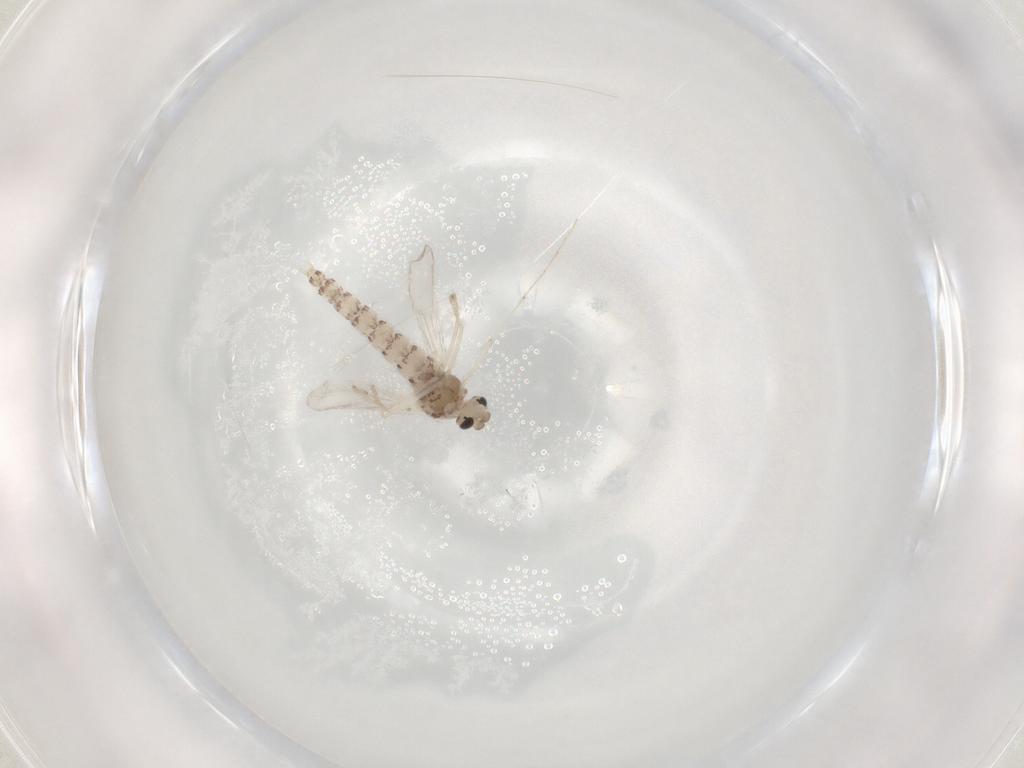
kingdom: Animalia
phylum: Arthropoda
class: Insecta
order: Diptera
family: Chironomidae
